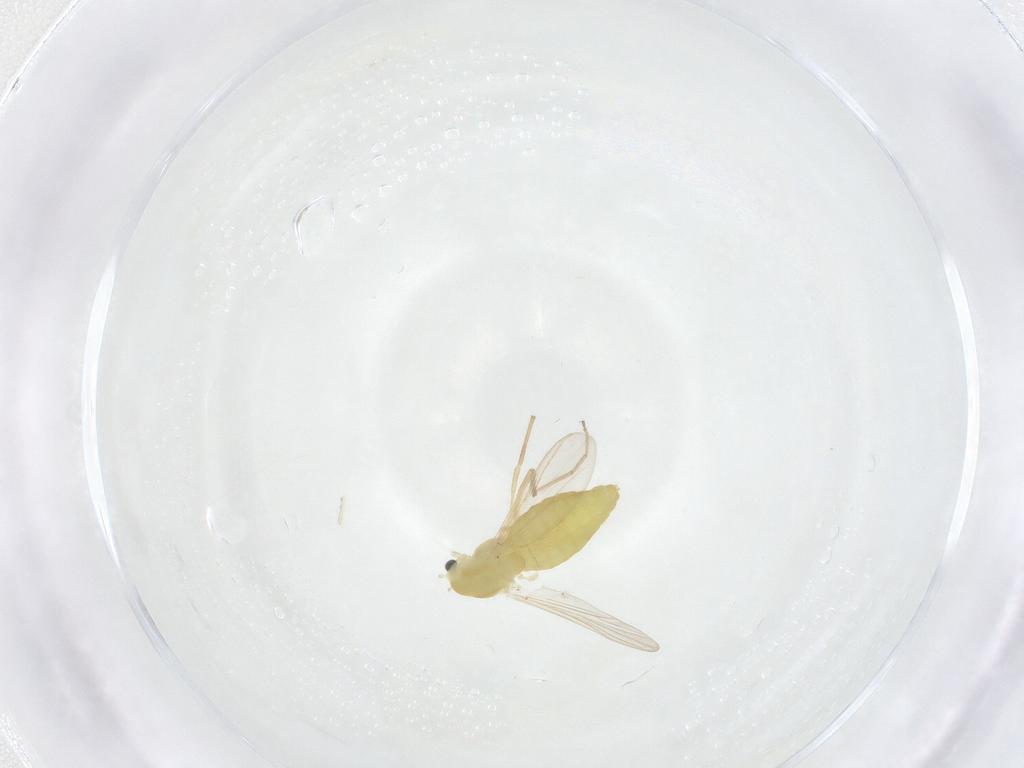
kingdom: Animalia
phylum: Arthropoda
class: Insecta
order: Diptera
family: Chironomidae
